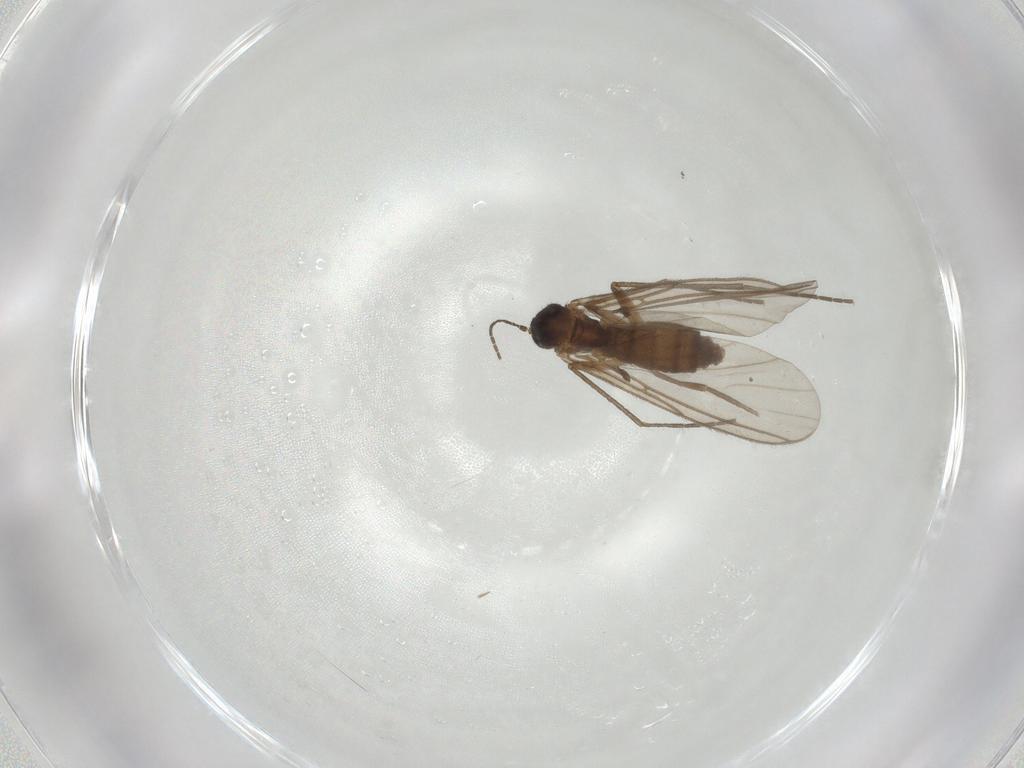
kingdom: Animalia
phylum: Arthropoda
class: Insecta
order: Diptera
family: Sciaridae
